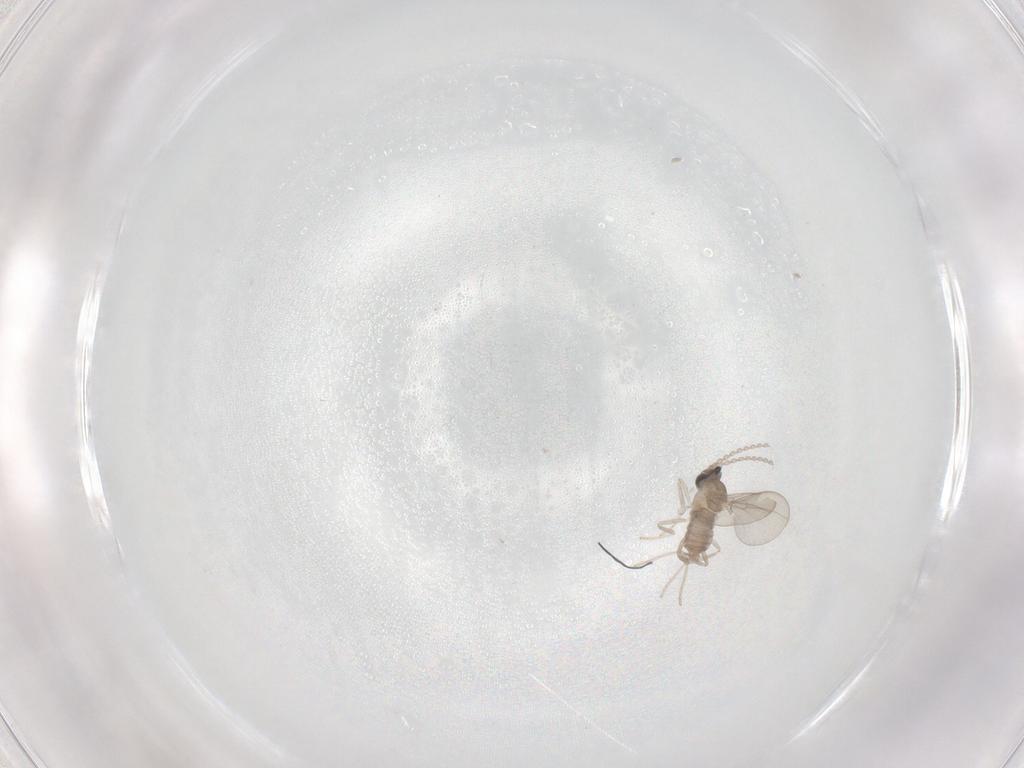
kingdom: Animalia
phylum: Arthropoda
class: Insecta
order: Diptera
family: Cecidomyiidae
